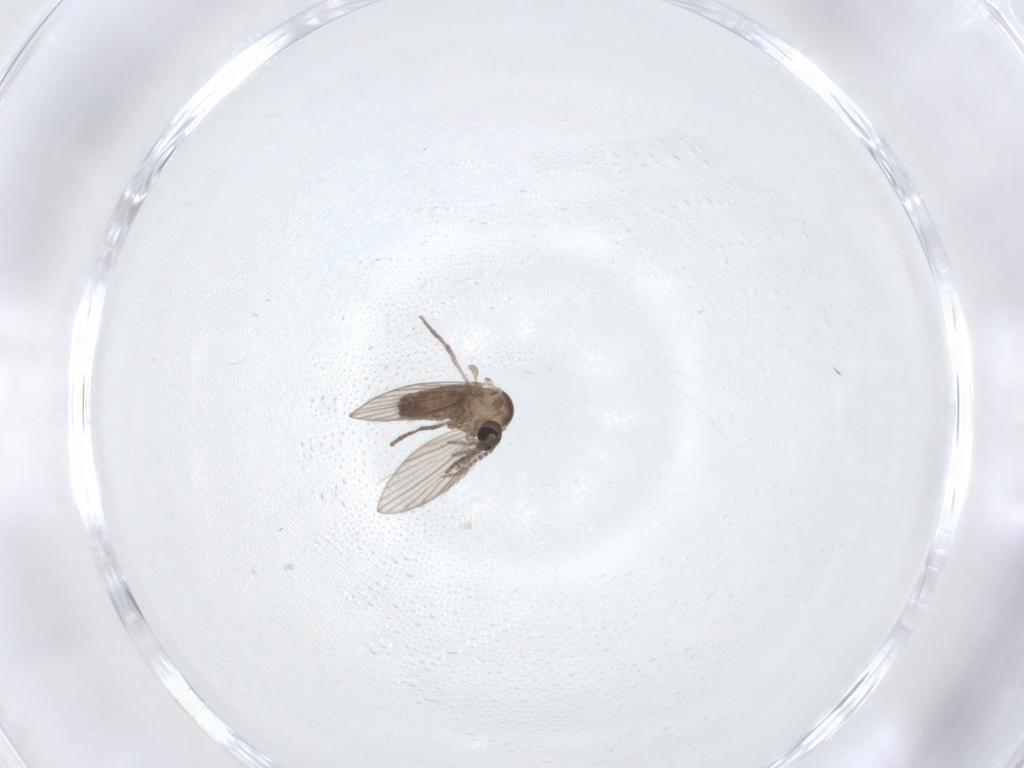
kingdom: Animalia
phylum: Arthropoda
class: Insecta
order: Diptera
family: Psychodidae
